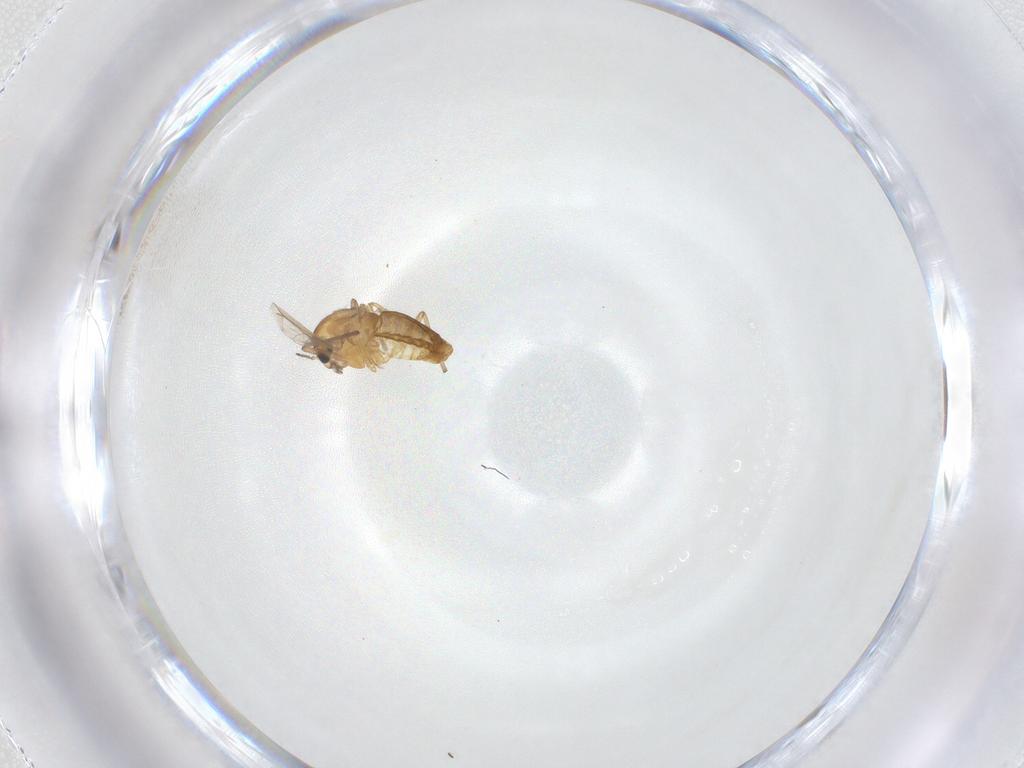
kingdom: Animalia
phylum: Arthropoda
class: Insecta
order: Diptera
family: Chironomidae
